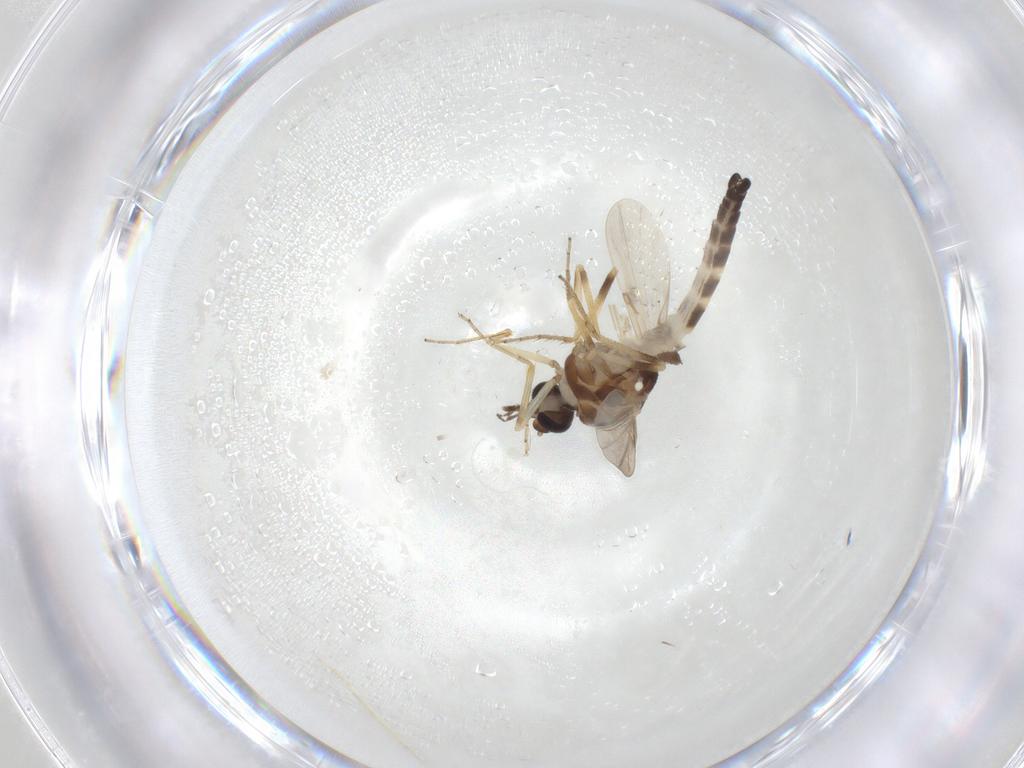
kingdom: Animalia
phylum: Arthropoda
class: Insecta
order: Diptera
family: Ceratopogonidae
